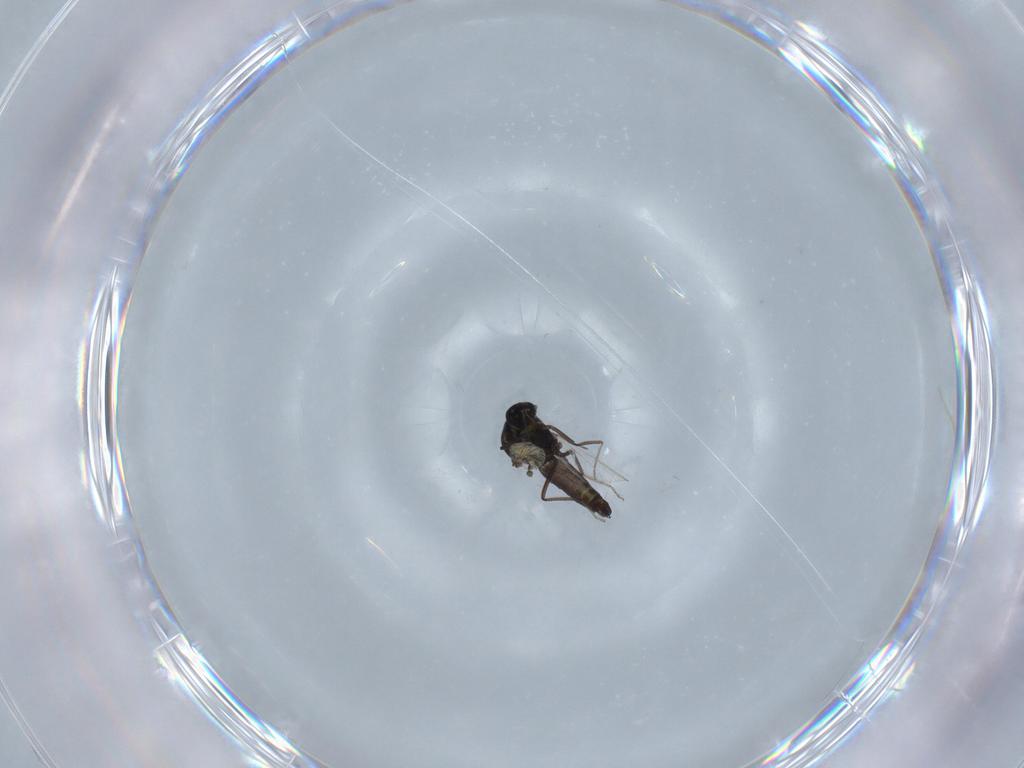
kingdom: Animalia
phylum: Arthropoda
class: Insecta
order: Diptera
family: Ceratopogonidae
